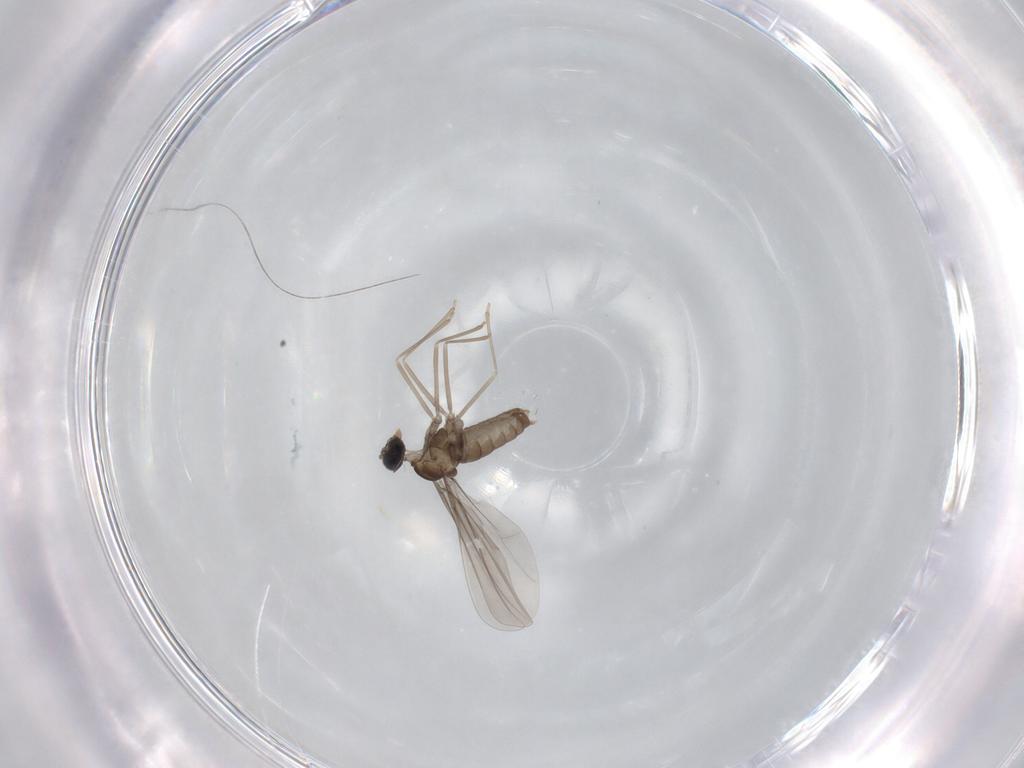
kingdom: Animalia
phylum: Arthropoda
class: Insecta
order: Diptera
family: Cecidomyiidae
